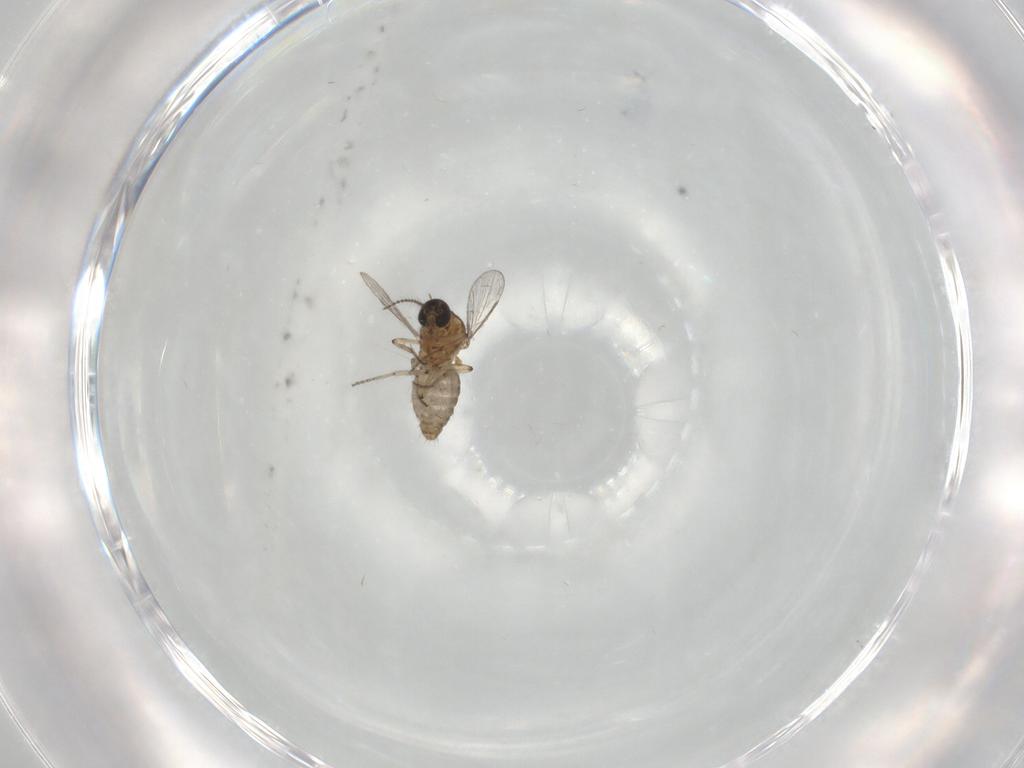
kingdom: Animalia
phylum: Arthropoda
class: Insecta
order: Diptera
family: Ceratopogonidae
